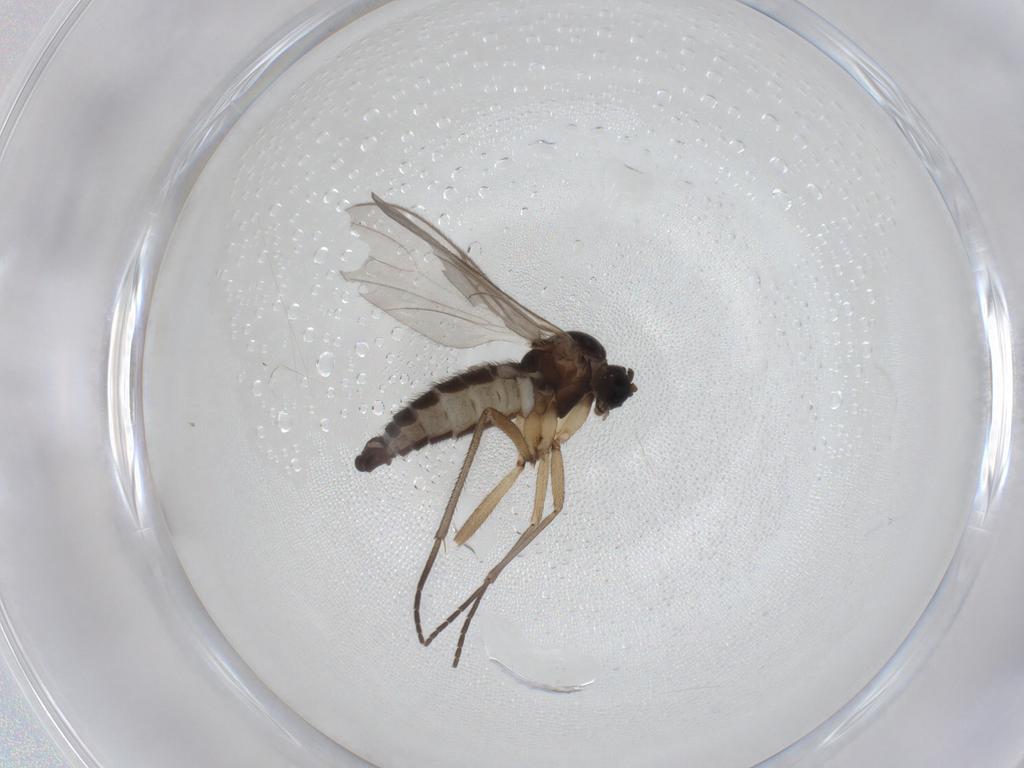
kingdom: Animalia
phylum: Arthropoda
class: Insecta
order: Diptera
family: Sciaridae
